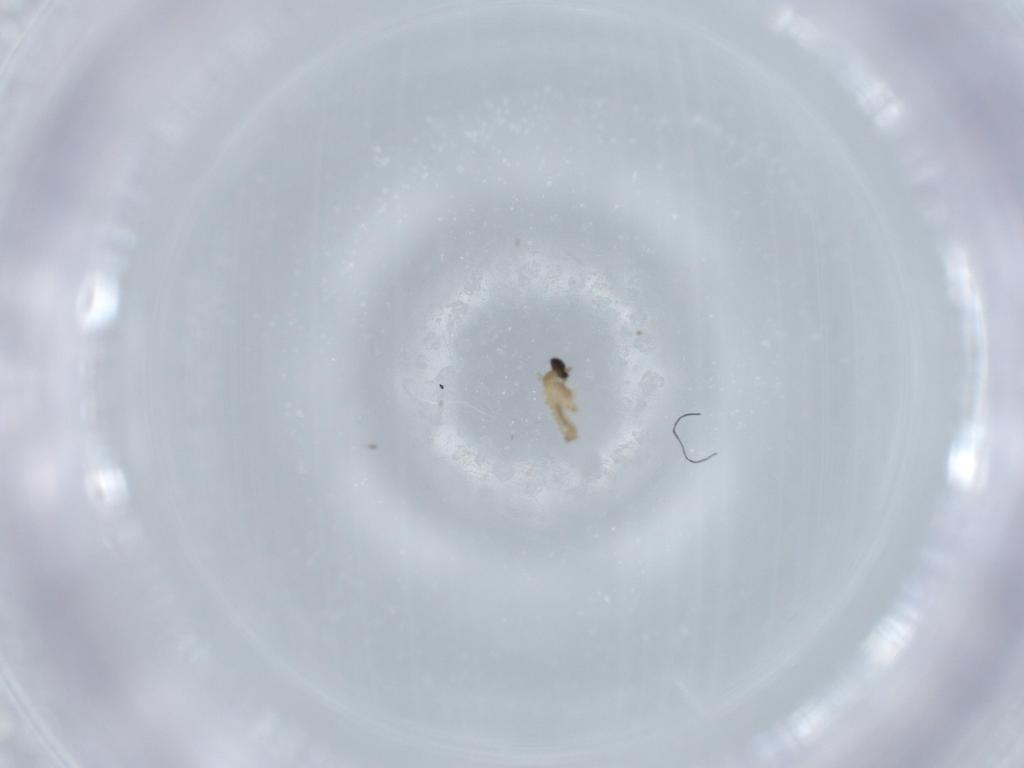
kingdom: Animalia
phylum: Arthropoda
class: Insecta
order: Diptera
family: Cecidomyiidae
